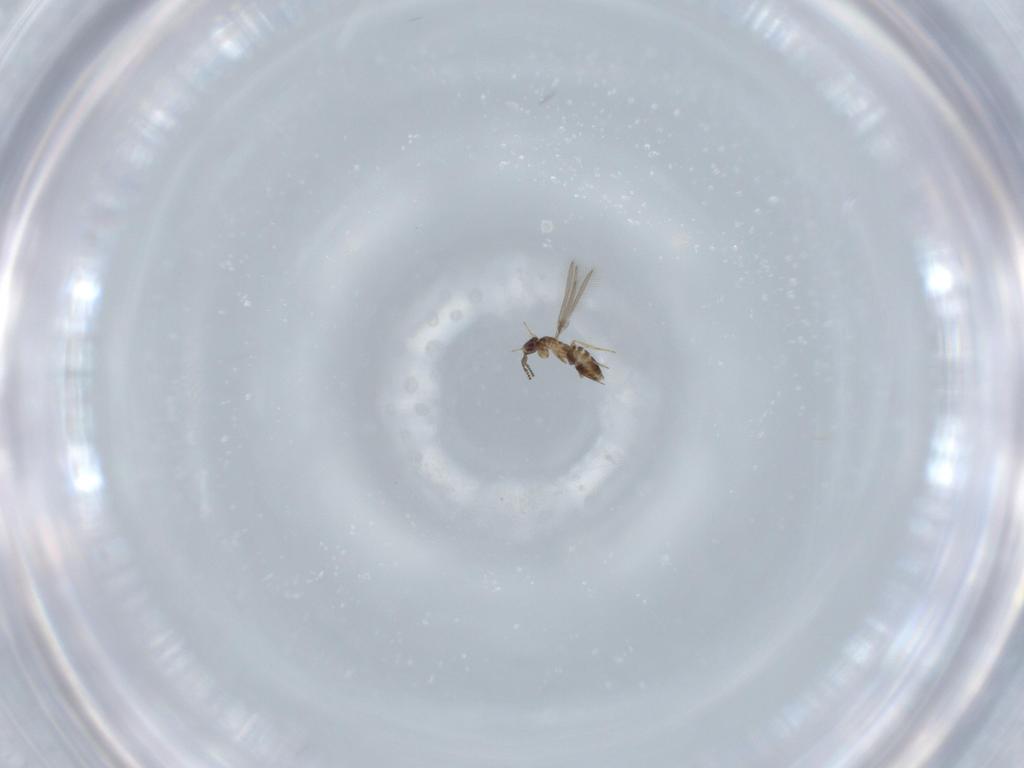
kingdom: Animalia
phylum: Arthropoda
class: Insecta
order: Hymenoptera
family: Mymaridae
